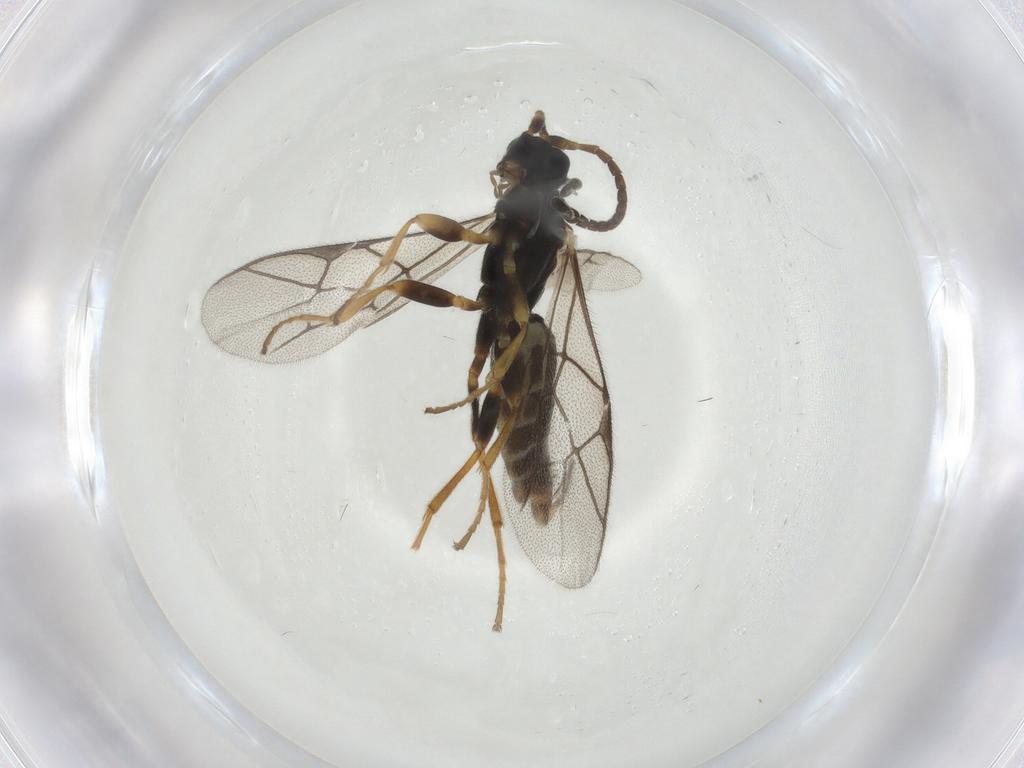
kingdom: Animalia
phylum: Arthropoda
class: Insecta
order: Hymenoptera
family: Ichneumonidae
